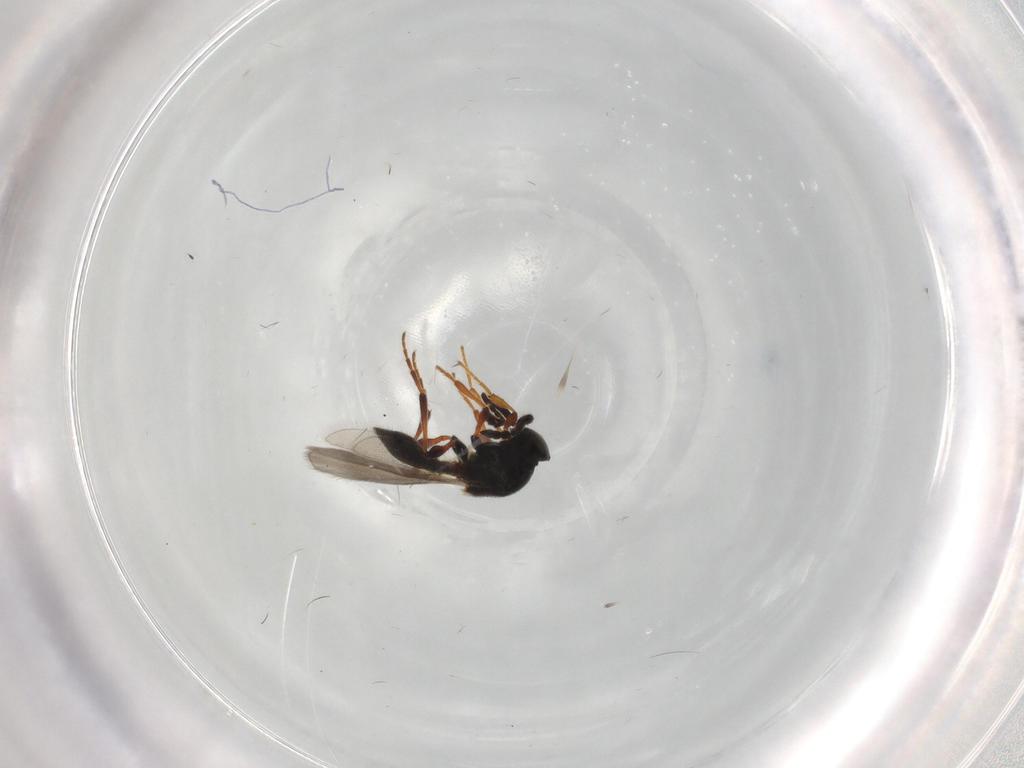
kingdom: Animalia
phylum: Arthropoda
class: Insecta
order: Hymenoptera
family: Platygastridae
